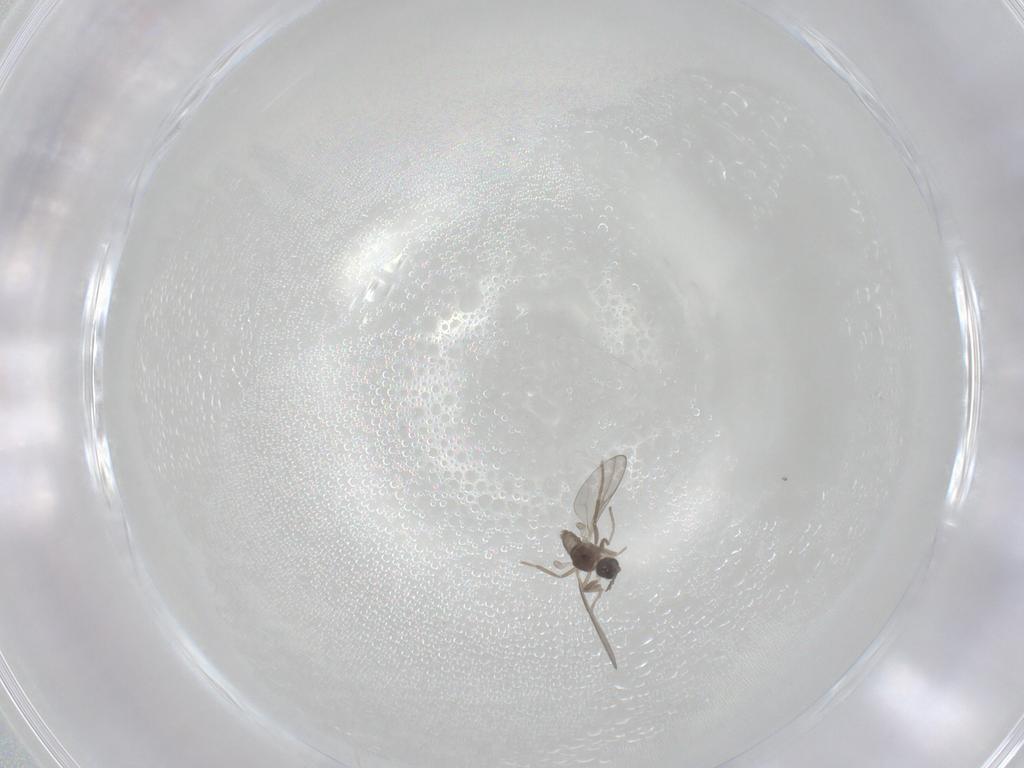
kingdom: Animalia
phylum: Arthropoda
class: Insecta
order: Diptera
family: Cecidomyiidae
